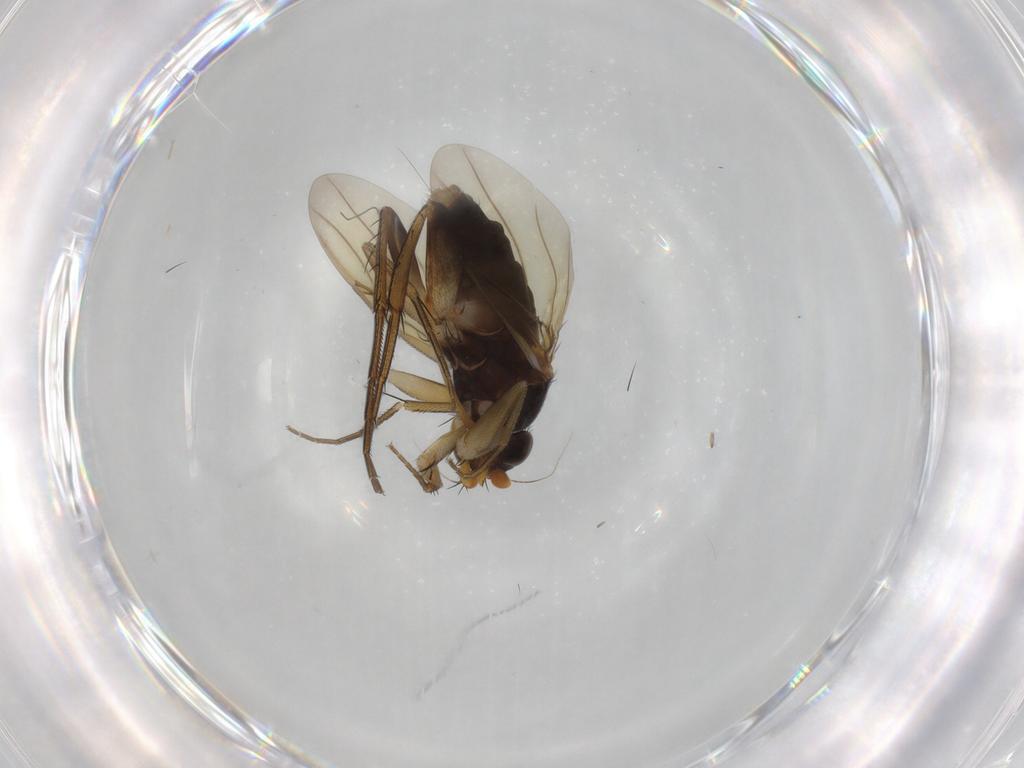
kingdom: Animalia
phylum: Arthropoda
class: Insecta
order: Diptera
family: Phoridae
